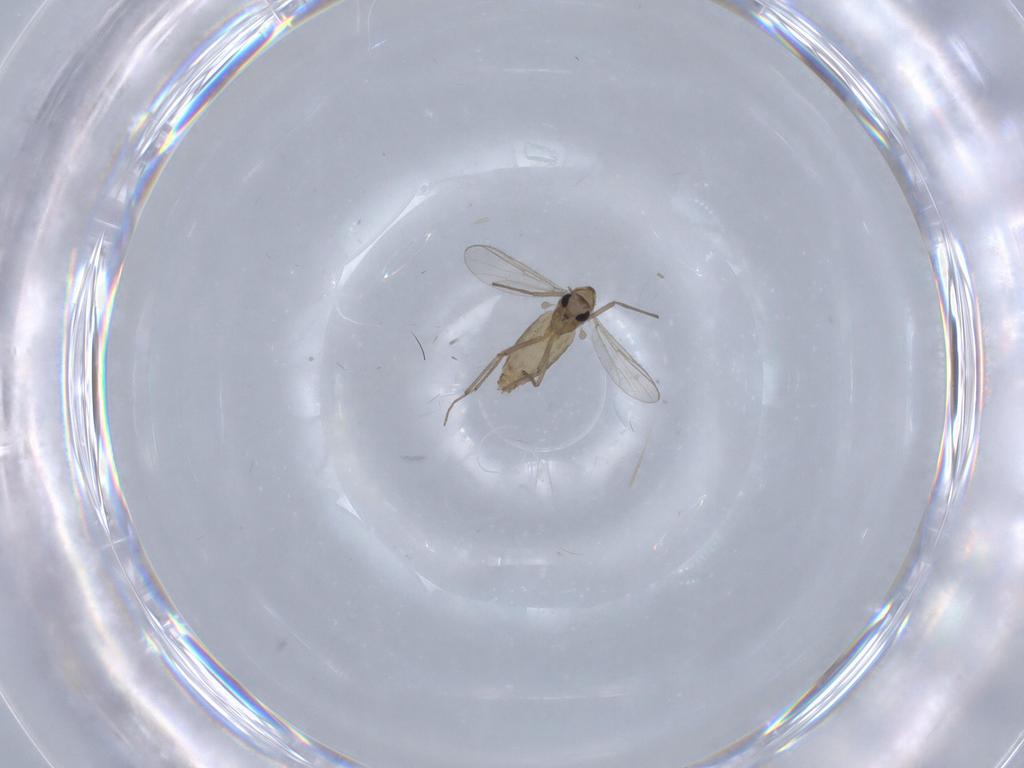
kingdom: Animalia
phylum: Arthropoda
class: Insecta
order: Diptera
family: Chironomidae
